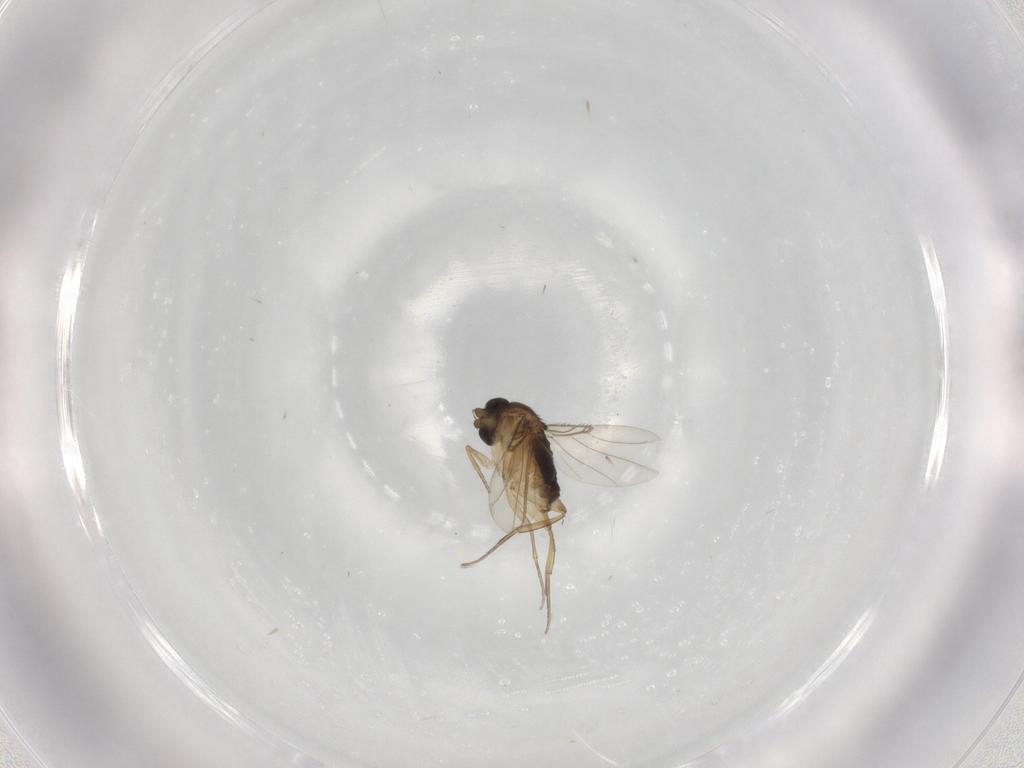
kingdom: Animalia
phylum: Arthropoda
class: Insecta
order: Diptera
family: Phoridae
